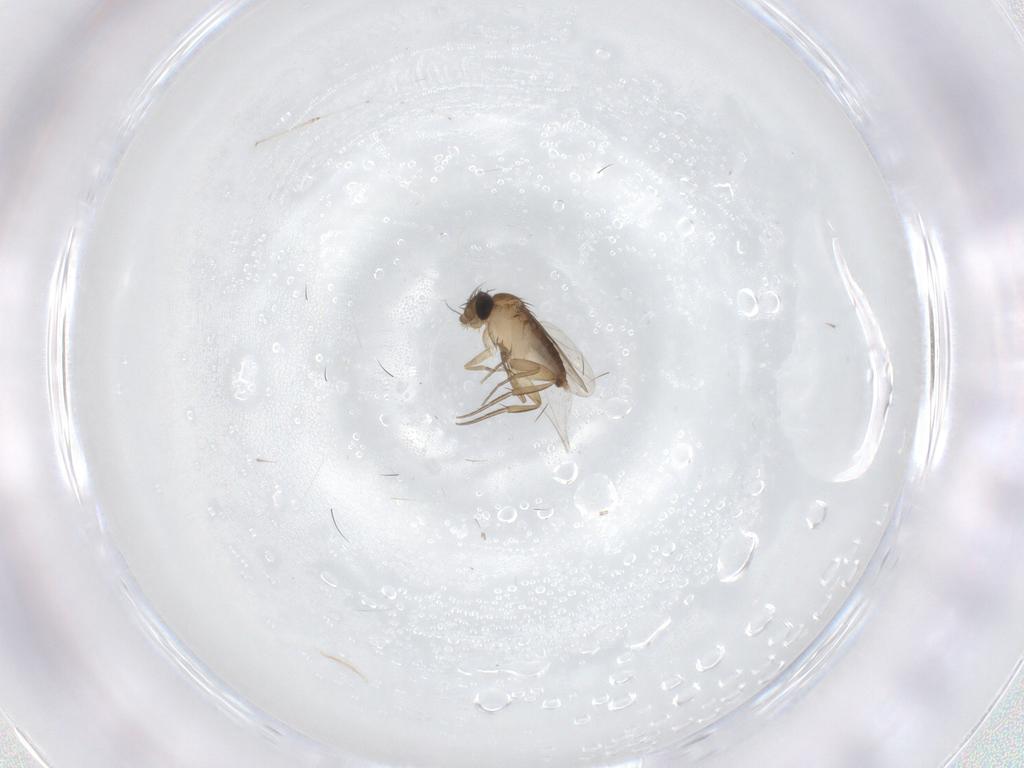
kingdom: Animalia
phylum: Arthropoda
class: Insecta
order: Diptera
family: Phoridae
